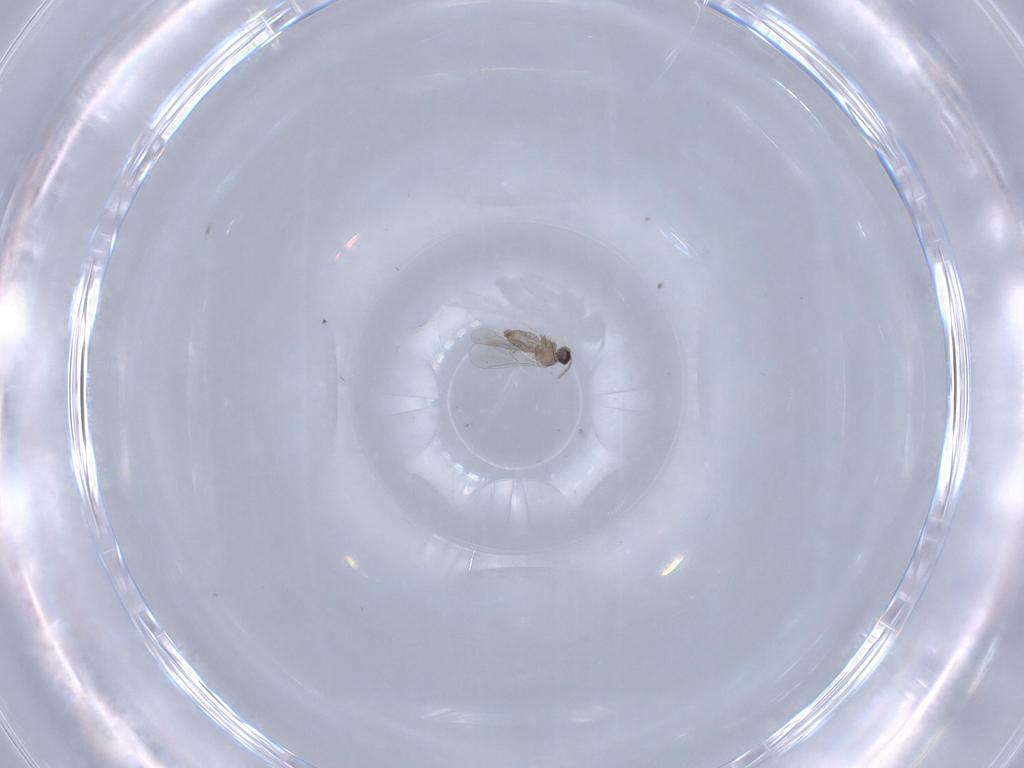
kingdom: Animalia
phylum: Arthropoda
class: Insecta
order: Diptera
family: Cecidomyiidae
